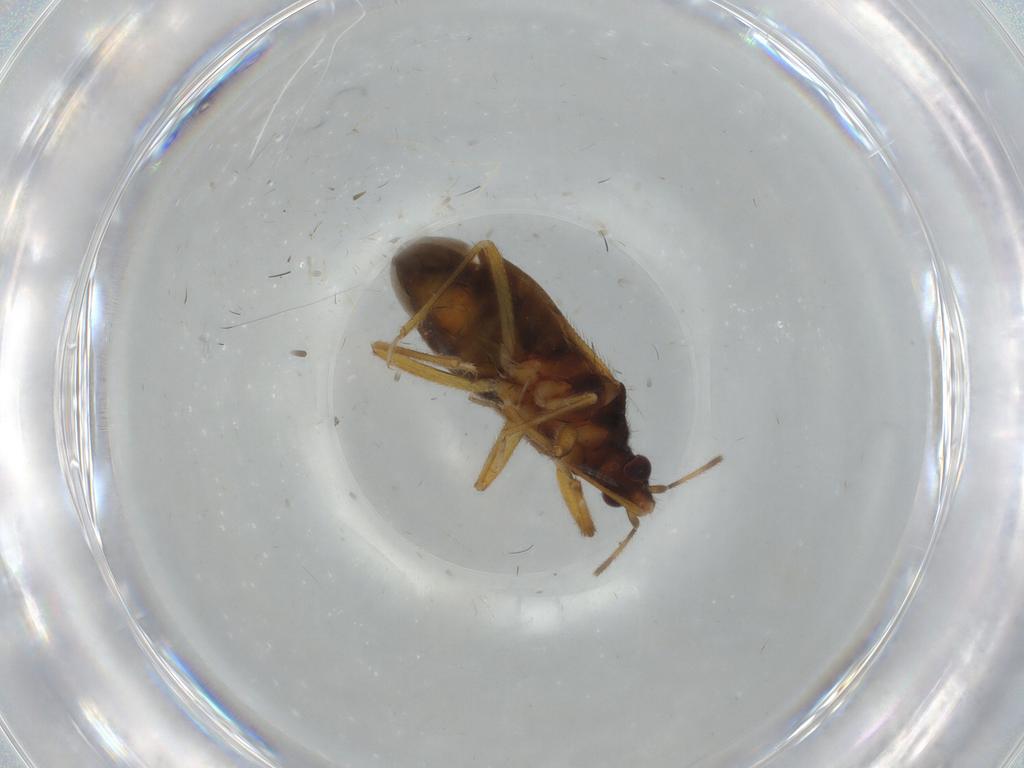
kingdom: Animalia
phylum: Arthropoda
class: Insecta
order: Hemiptera
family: Anthocoridae
